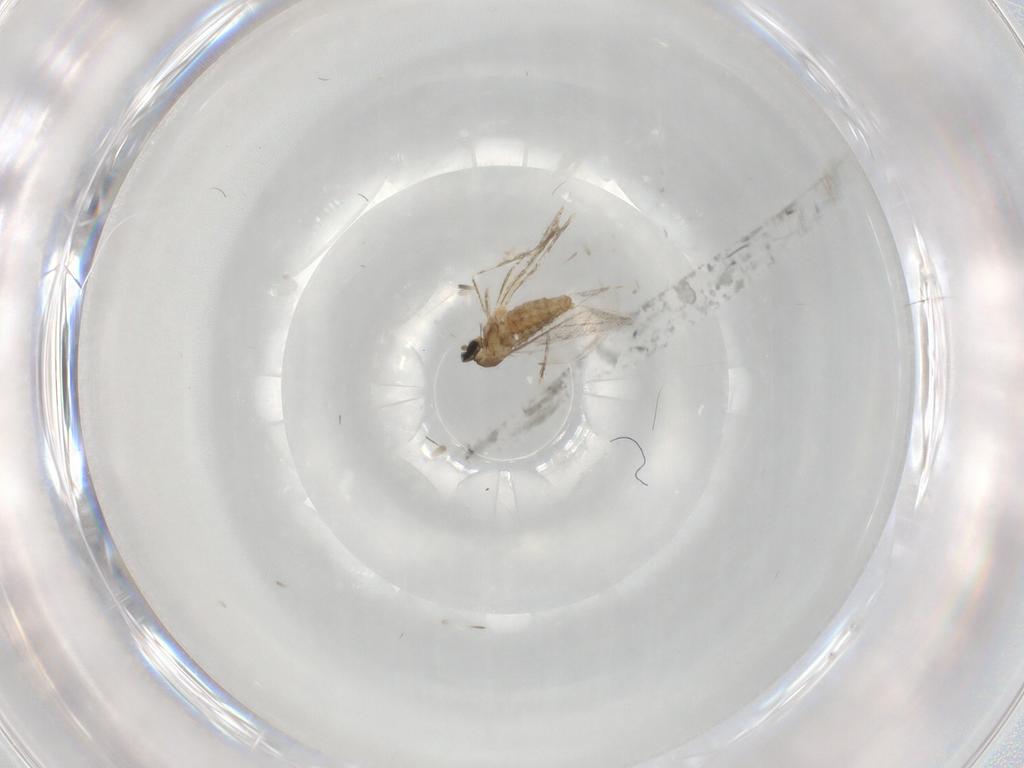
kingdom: Animalia
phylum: Arthropoda
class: Insecta
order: Diptera
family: Cecidomyiidae
